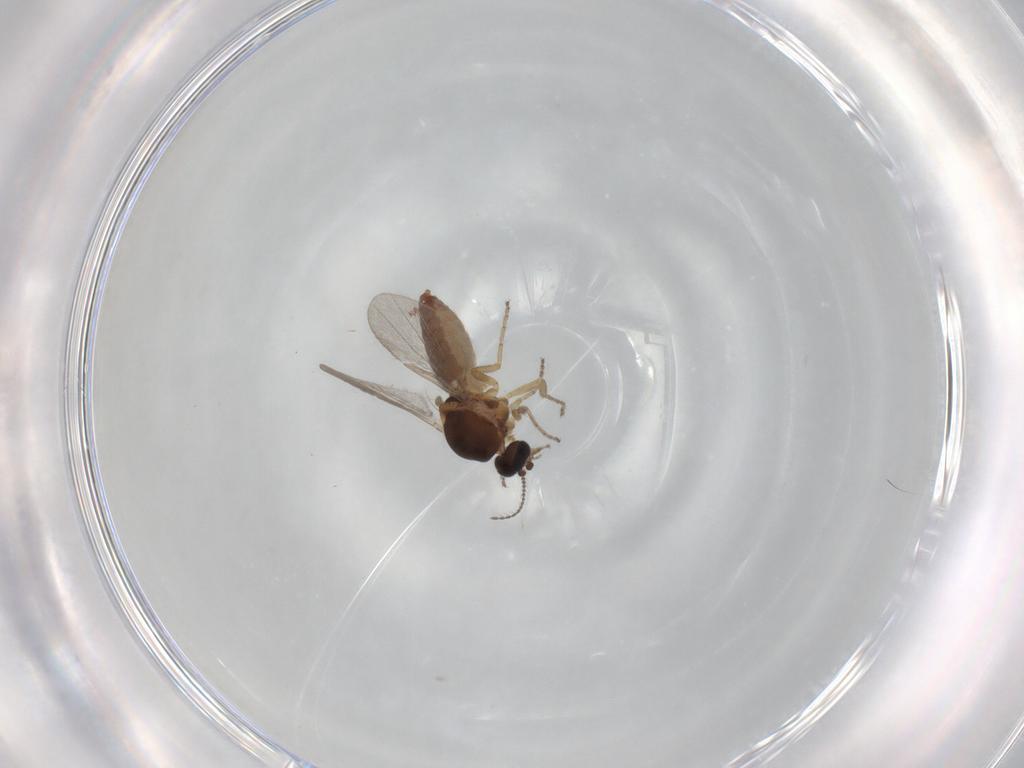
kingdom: Animalia
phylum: Arthropoda
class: Insecta
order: Diptera
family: Ceratopogonidae
